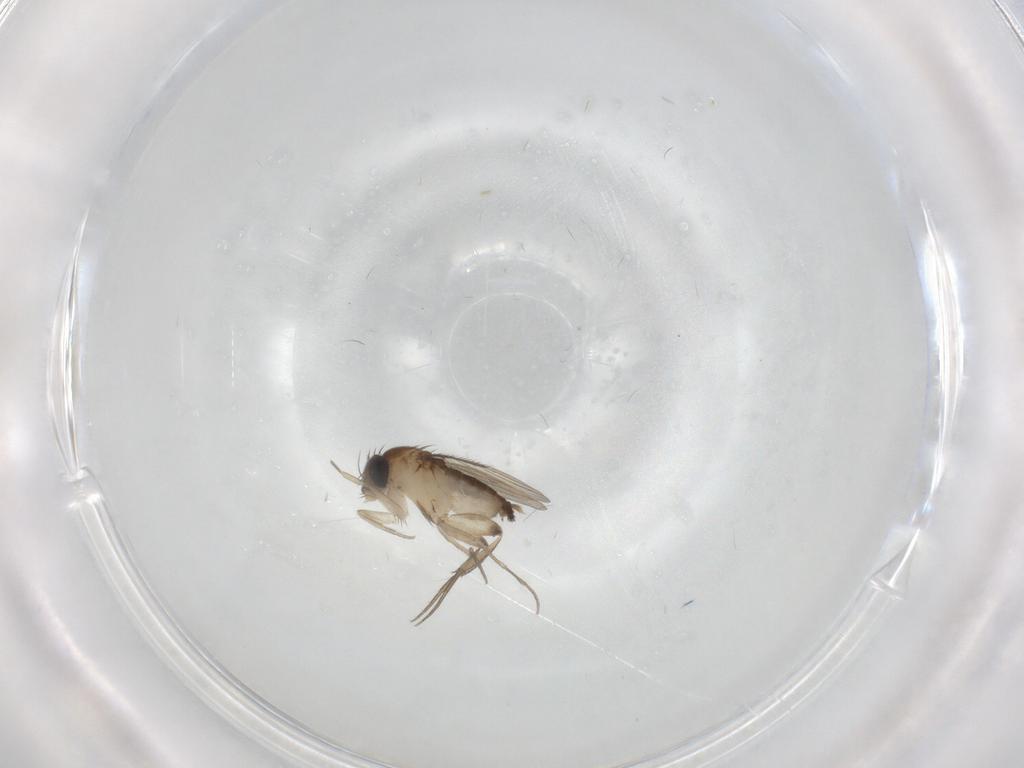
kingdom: Animalia
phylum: Arthropoda
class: Insecta
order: Diptera
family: Phoridae
